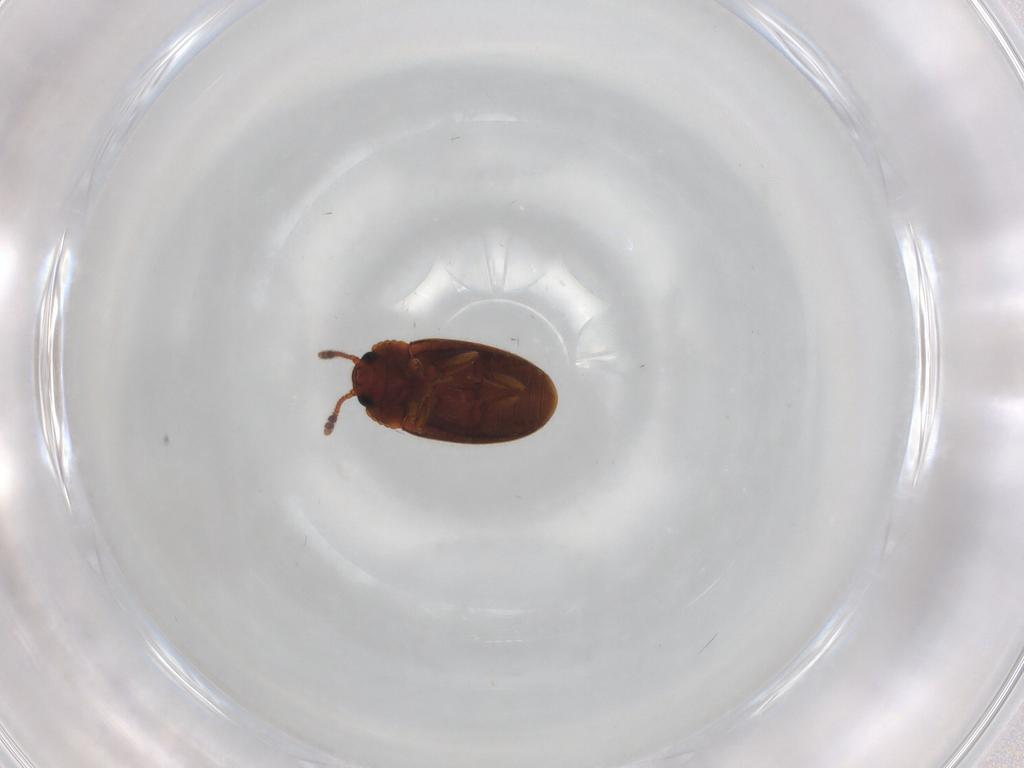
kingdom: Animalia
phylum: Arthropoda
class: Insecta
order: Coleoptera
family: Erotylidae
